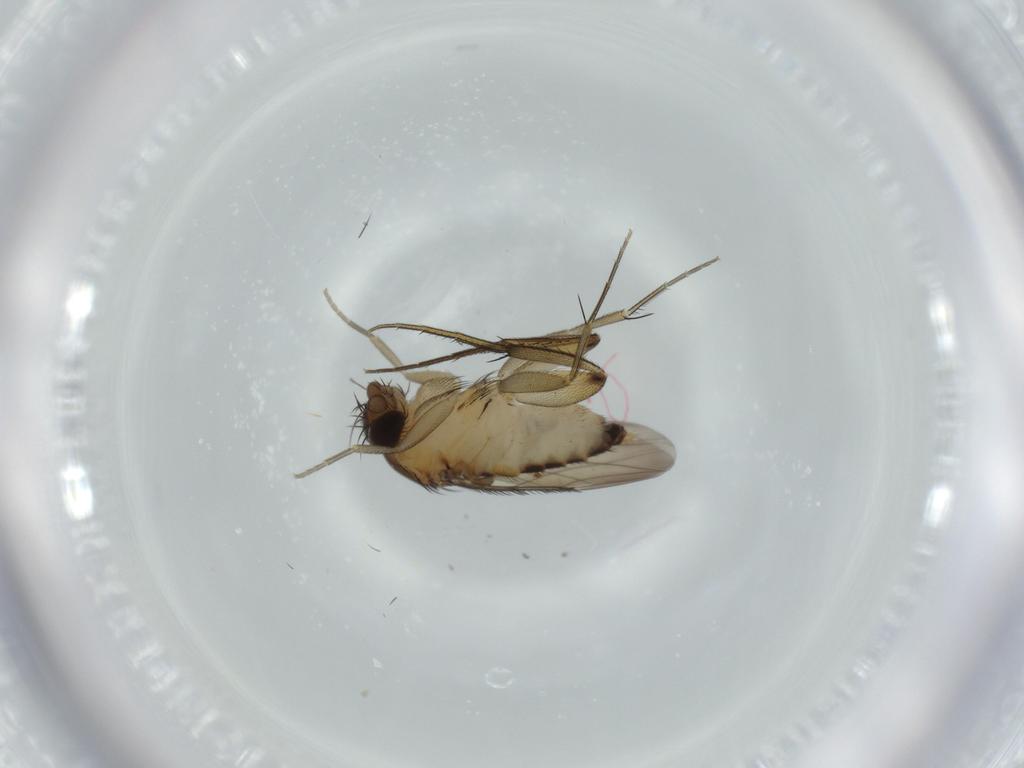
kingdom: Animalia
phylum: Arthropoda
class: Insecta
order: Diptera
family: Phoridae
